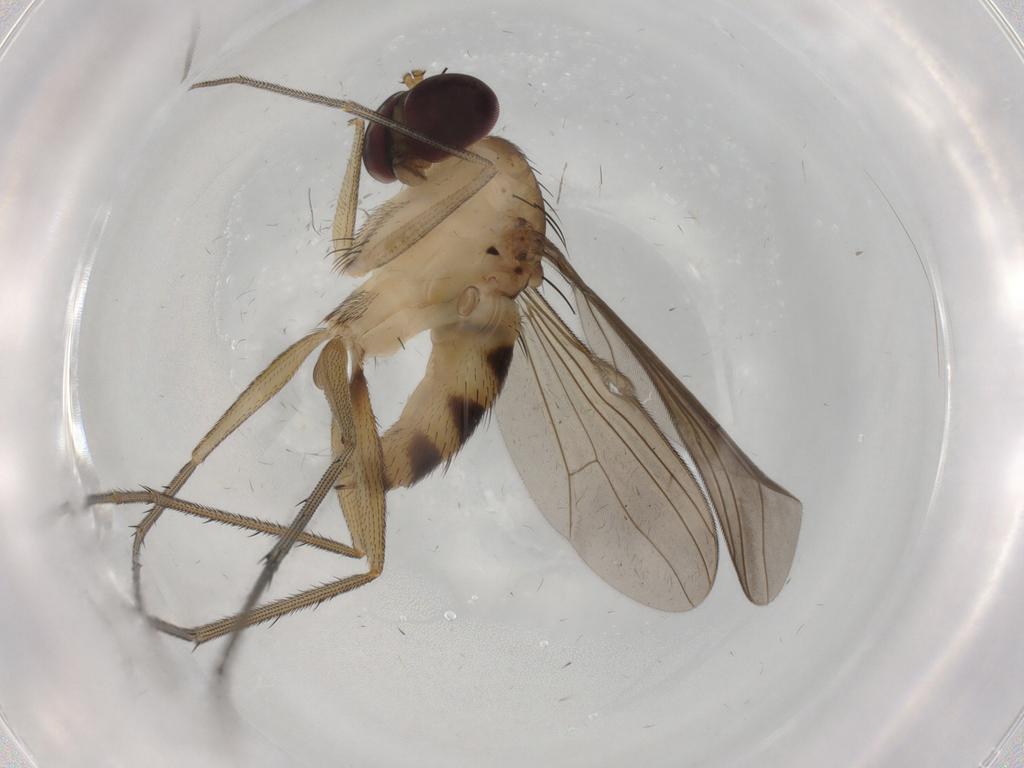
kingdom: Animalia
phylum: Arthropoda
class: Insecta
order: Diptera
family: Dolichopodidae
